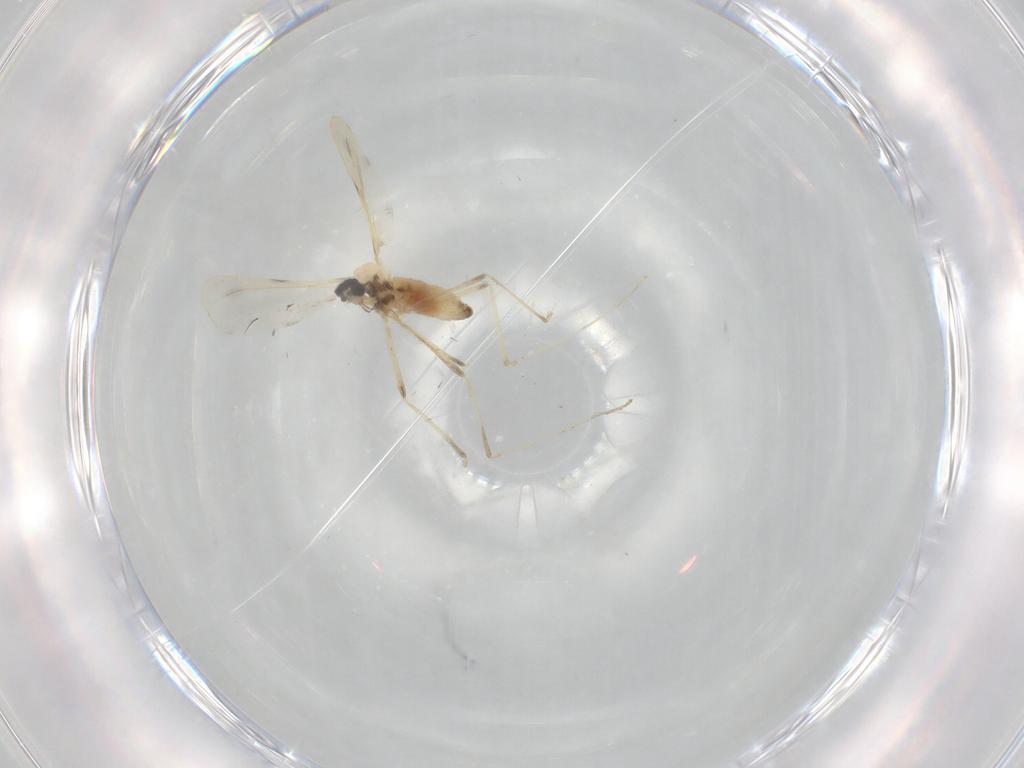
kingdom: Animalia
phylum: Arthropoda
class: Insecta
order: Diptera
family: Cecidomyiidae
